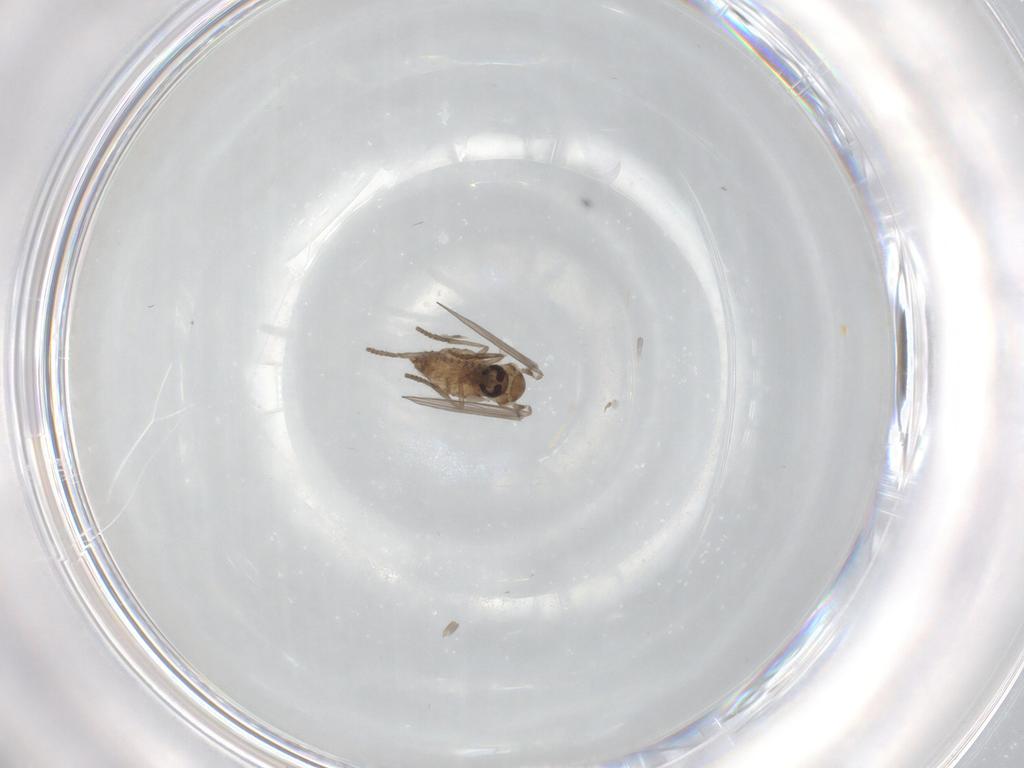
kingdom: Animalia
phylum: Arthropoda
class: Insecta
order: Diptera
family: Psychodidae
